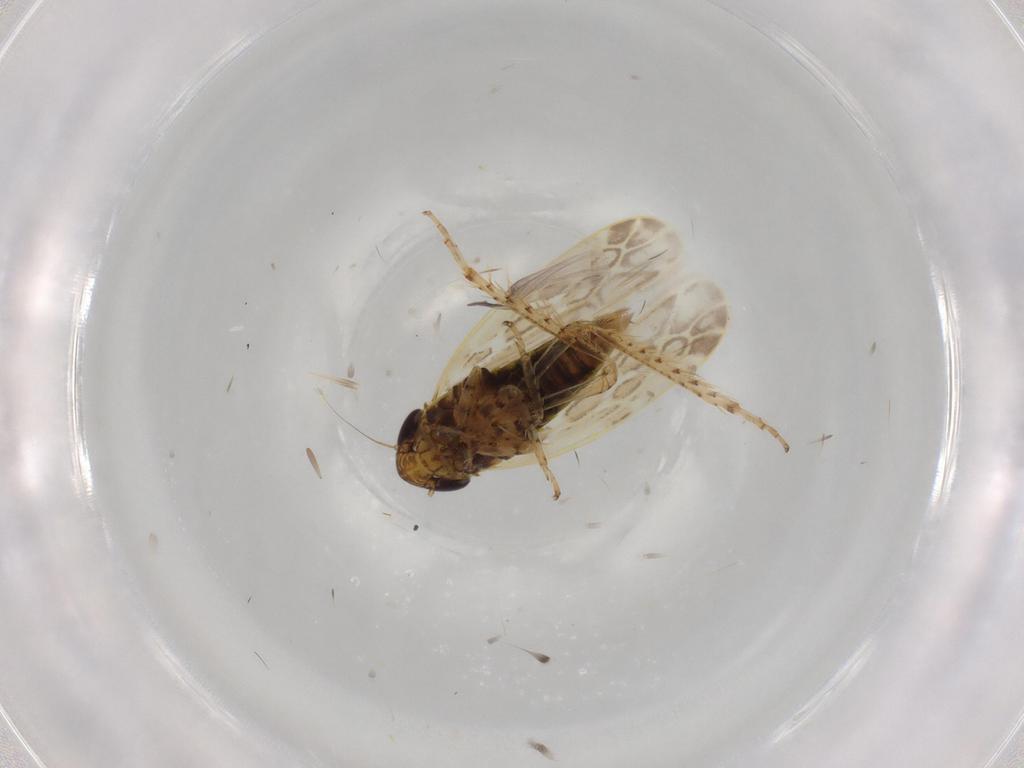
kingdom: Animalia
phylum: Arthropoda
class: Insecta
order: Hemiptera
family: Cicadellidae
